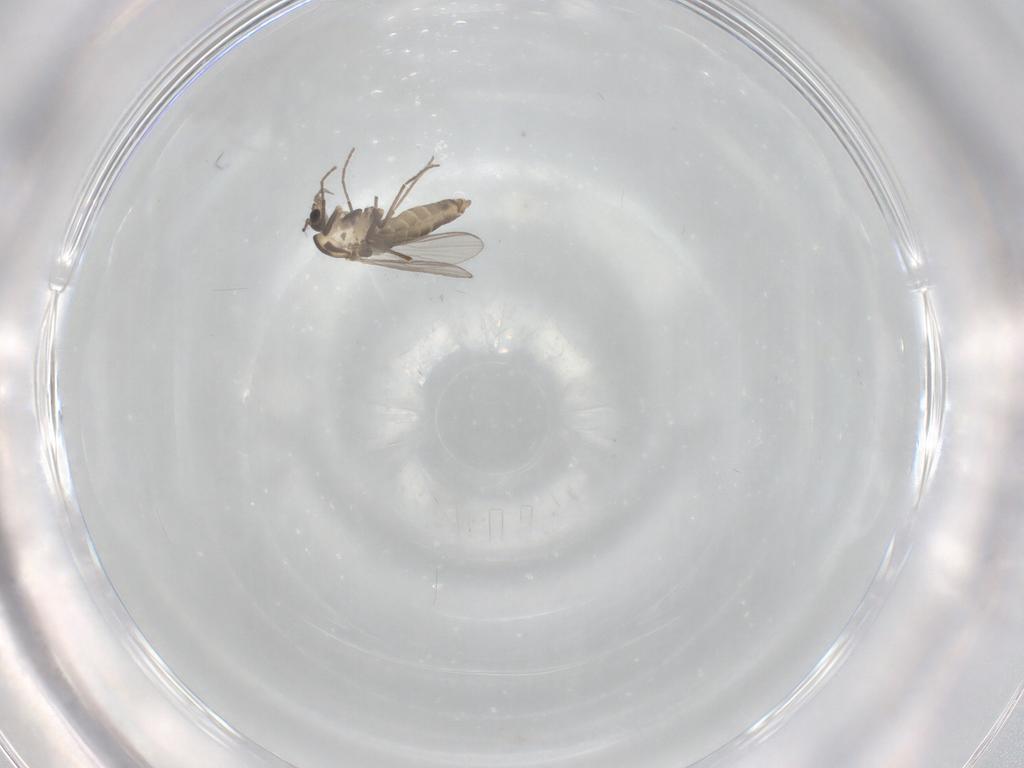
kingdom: Animalia
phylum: Arthropoda
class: Insecta
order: Diptera
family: Chironomidae
